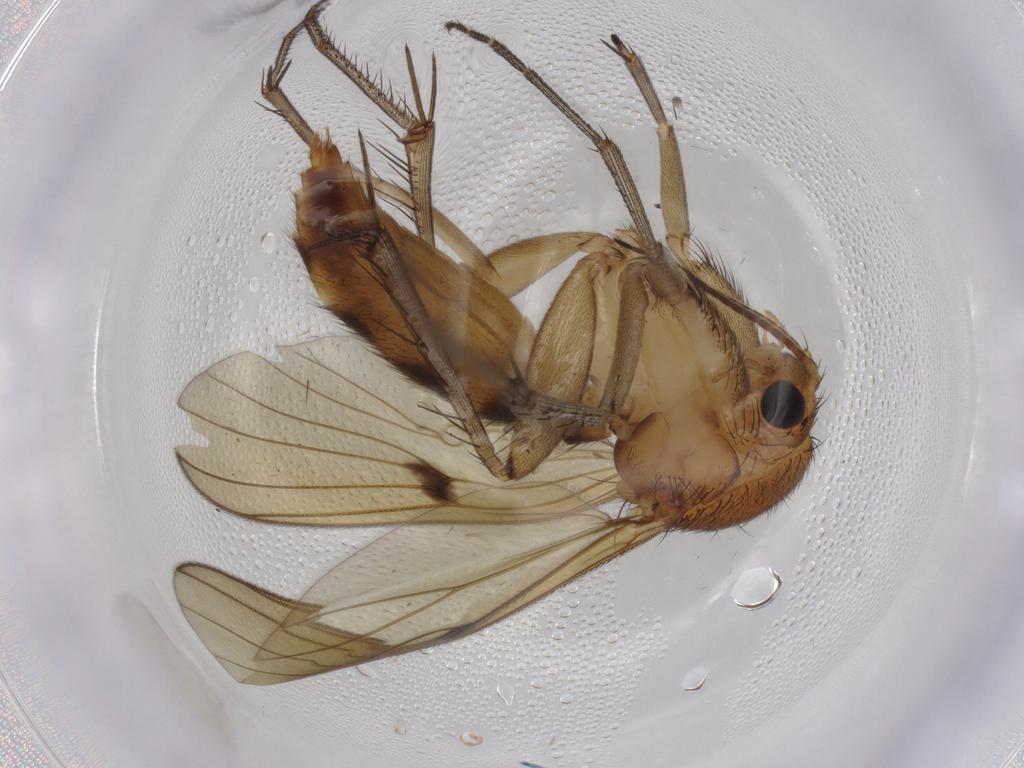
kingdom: Animalia
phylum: Arthropoda
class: Insecta
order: Diptera
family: Mycetophilidae
